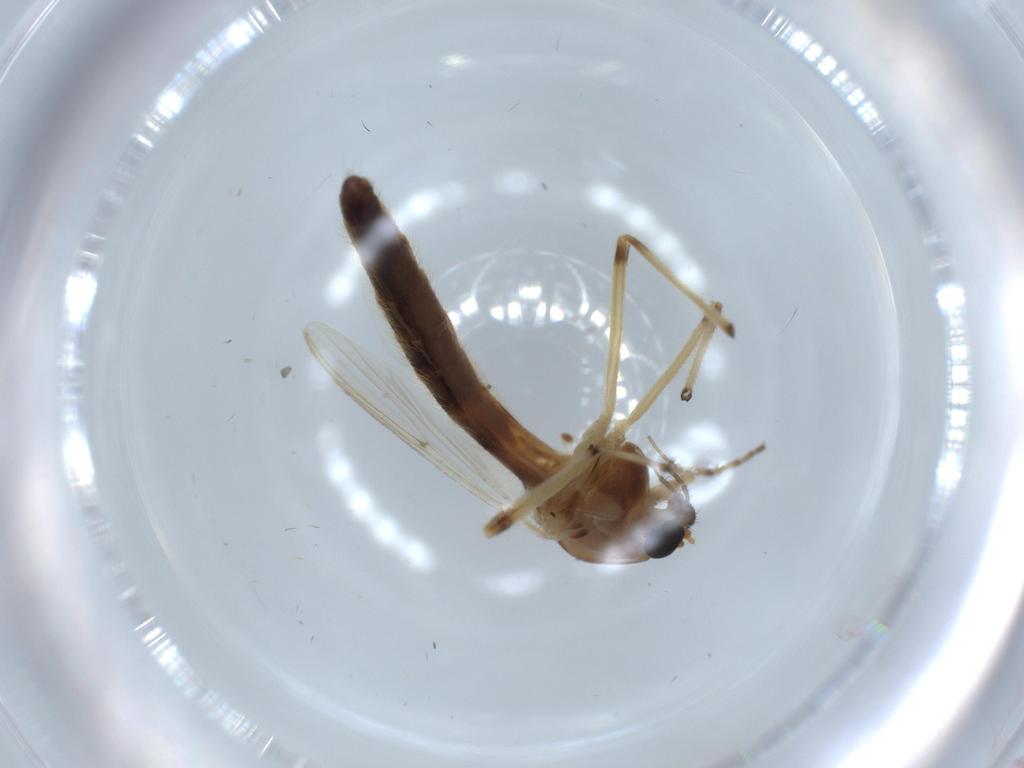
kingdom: Animalia
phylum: Arthropoda
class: Insecta
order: Diptera
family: Chironomidae
